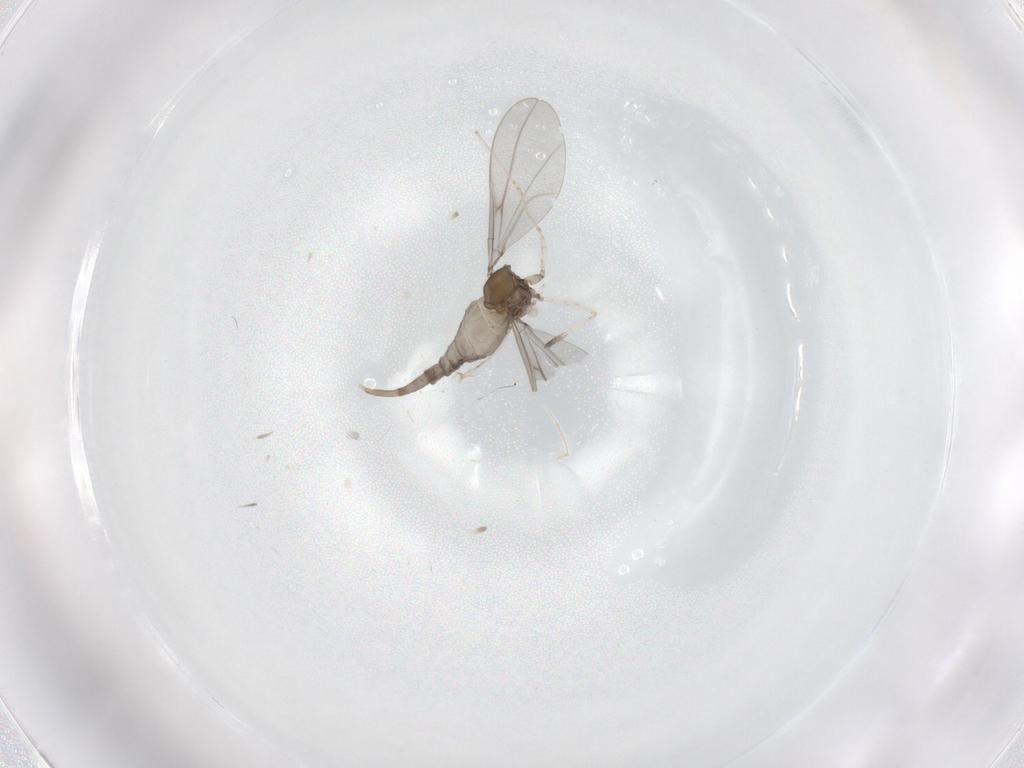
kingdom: Animalia
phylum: Arthropoda
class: Insecta
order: Diptera
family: Cecidomyiidae
